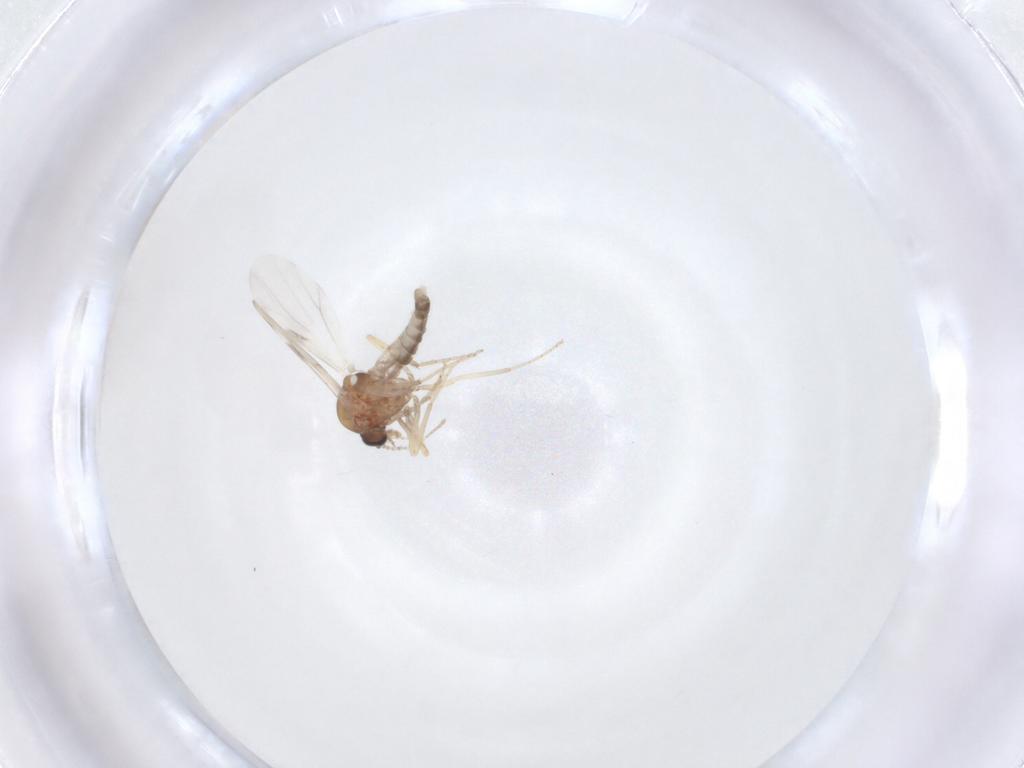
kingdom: Animalia
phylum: Arthropoda
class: Insecta
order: Diptera
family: Ceratopogonidae
